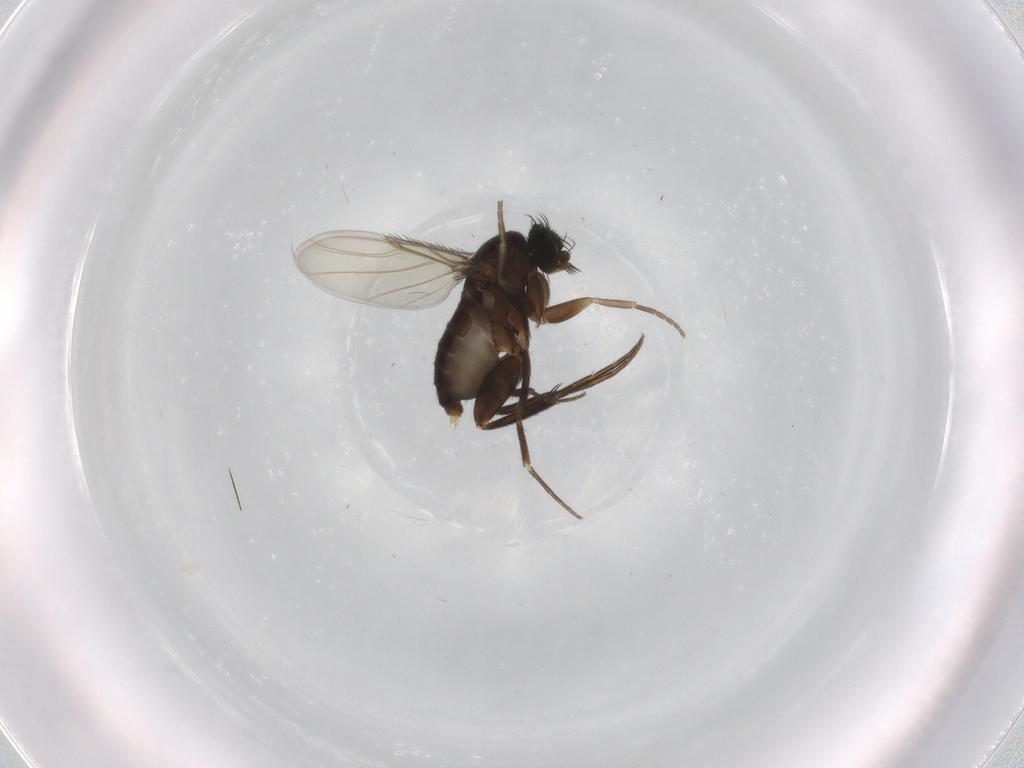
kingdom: Animalia
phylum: Arthropoda
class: Insecta
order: Diptera
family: Phoridae
